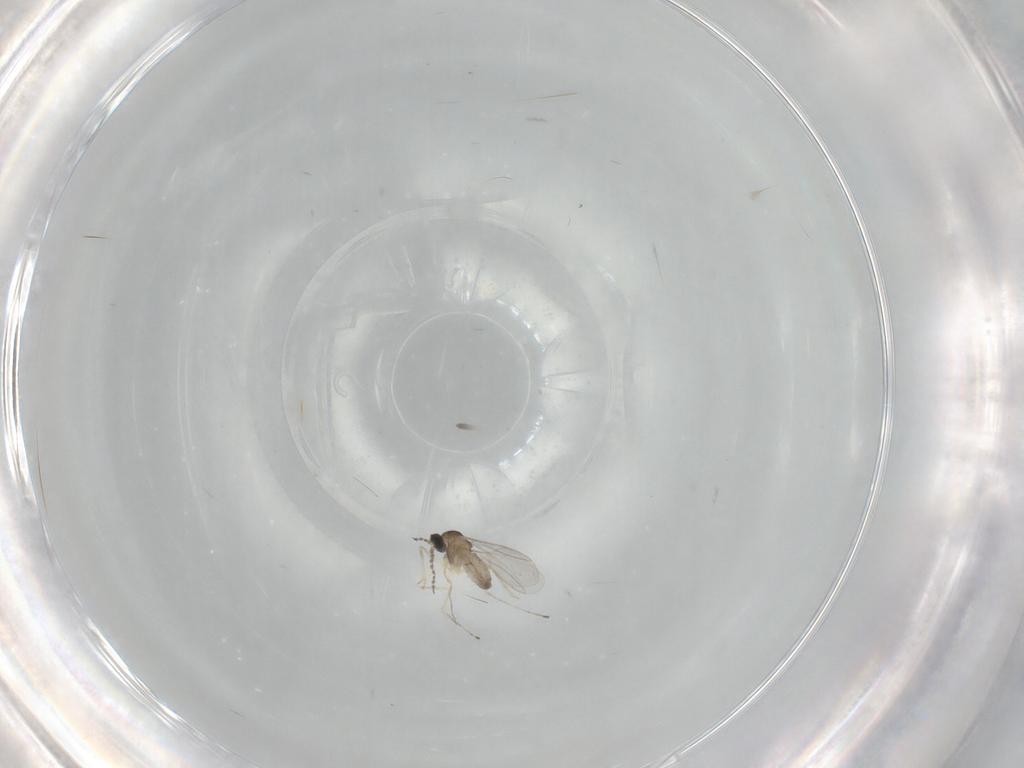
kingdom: Animalia
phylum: Arthropoda
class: Insecta
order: Diptera
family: Cecidomyiidae
